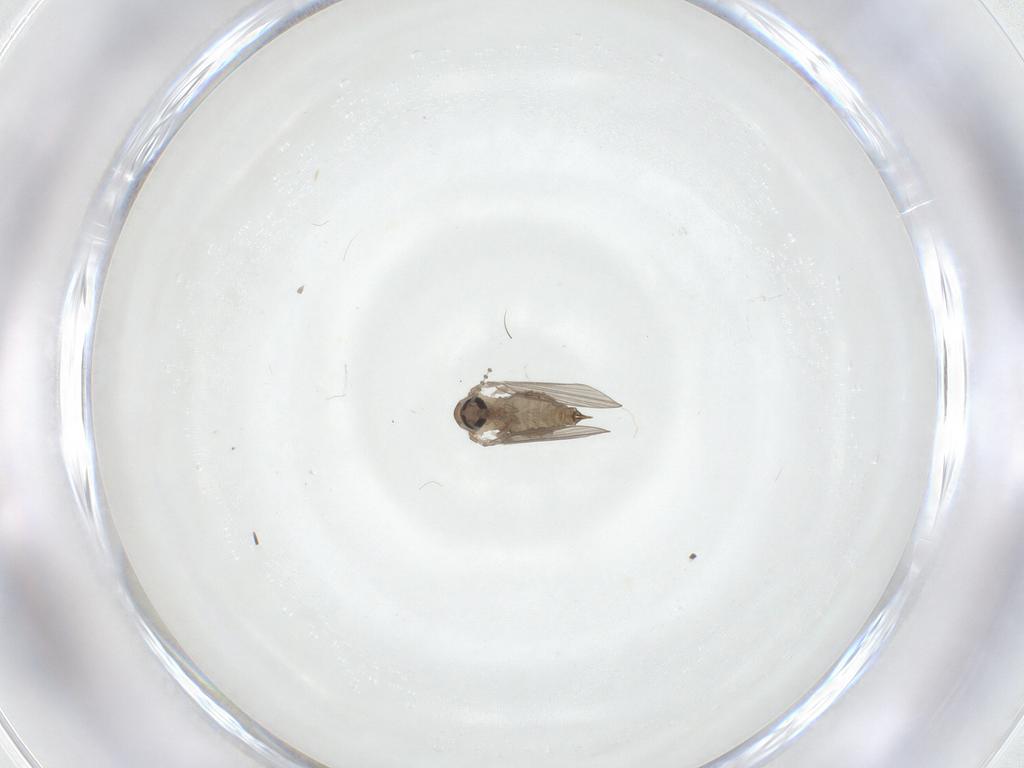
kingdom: Animalia
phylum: Arthropoda
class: Insecta
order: Diptera
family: Psychodidae
